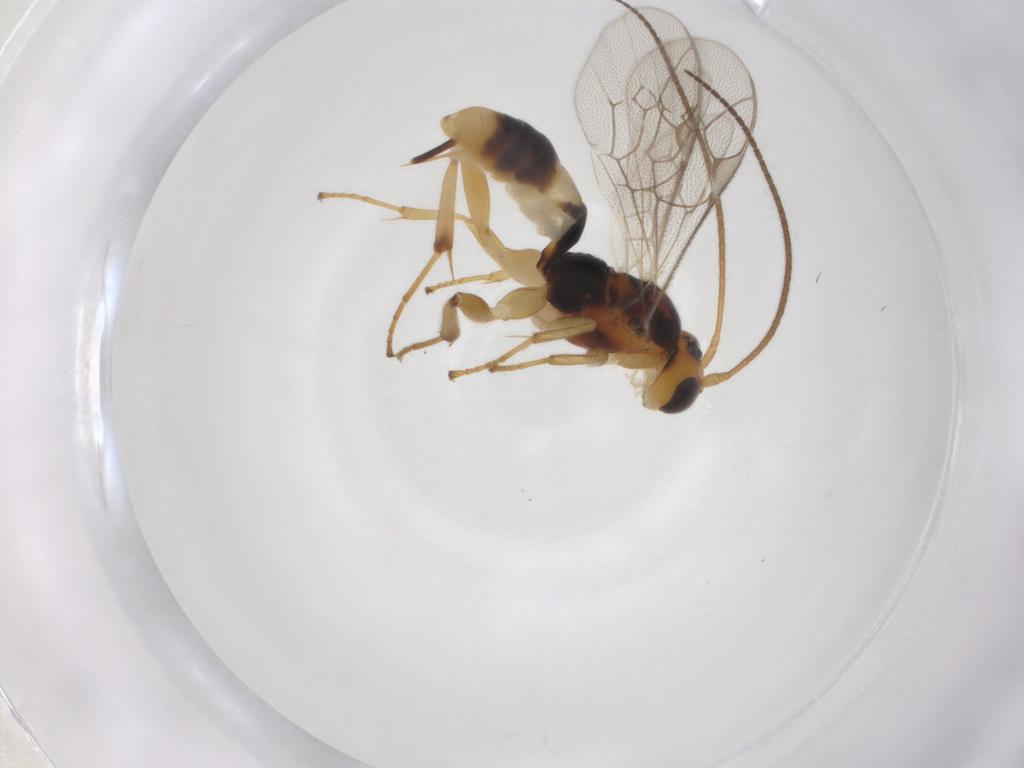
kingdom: Animalia
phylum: Arthropoda
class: Insecta
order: Hymenoptera
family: Ichneumonidae
